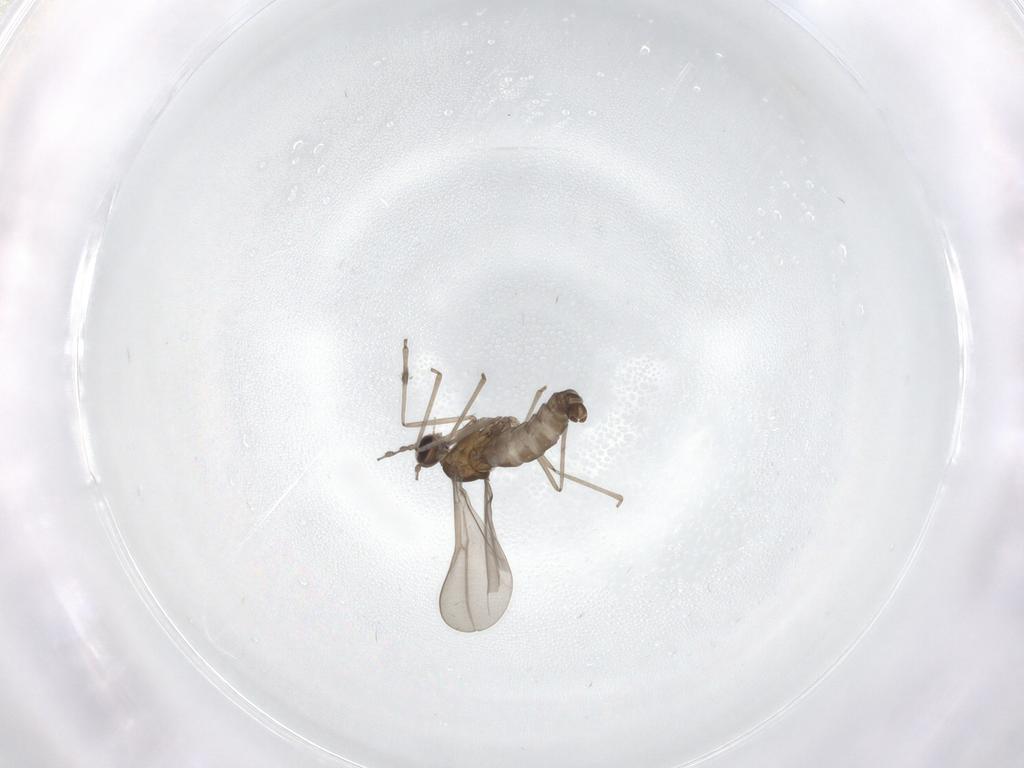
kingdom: Animalia
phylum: Arthropoda
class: Insecta
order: Diptera
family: Cecidomyiidae
